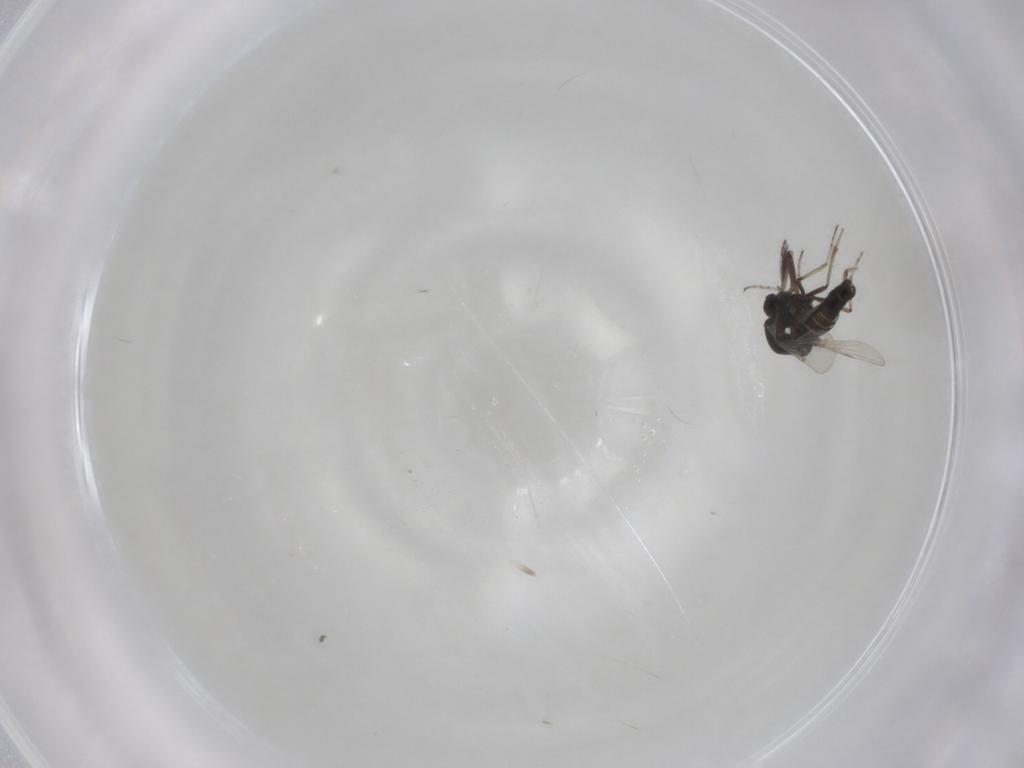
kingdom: Animalia
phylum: Arthropoda
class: Insecta
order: Diptera
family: Ceratopogonidae
